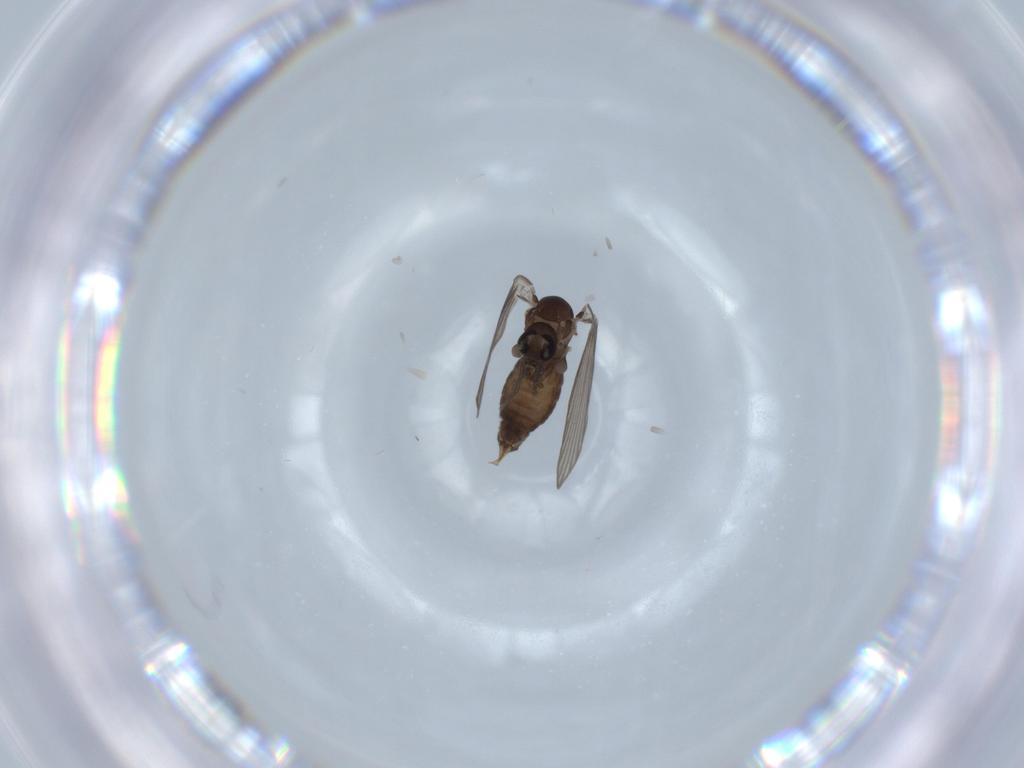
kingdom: Animalia
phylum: Arthropoda
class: Insecta
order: Diptera
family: Psychodidae
